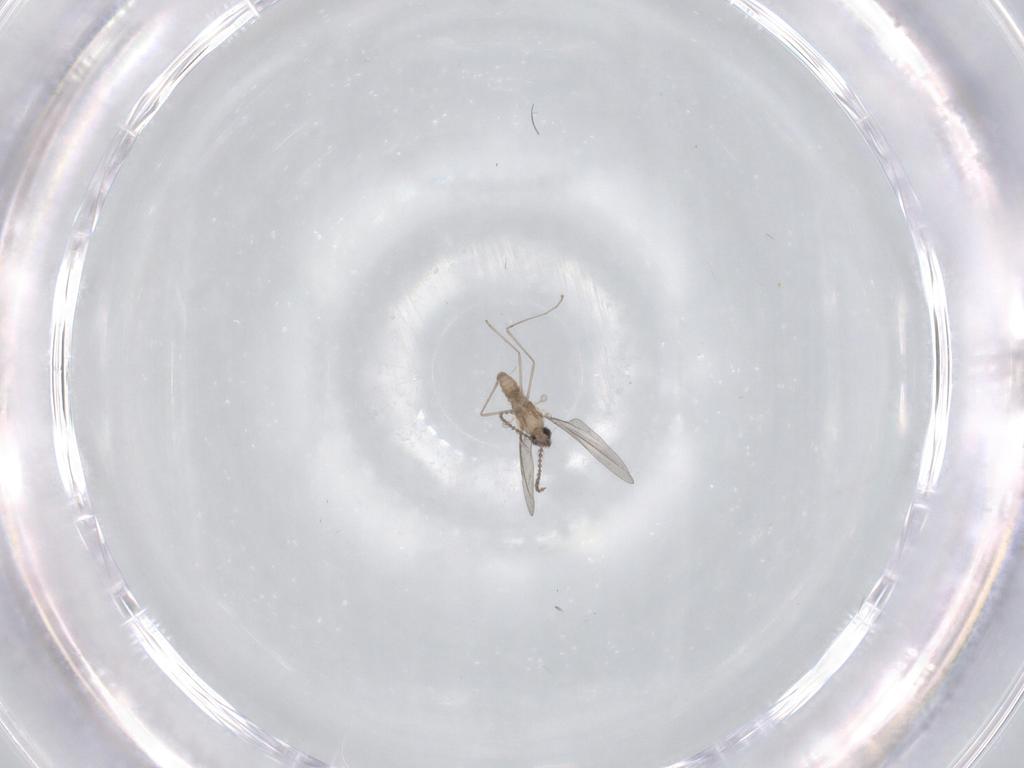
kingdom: Animalia
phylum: Arthropoda
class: Insecta
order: Diptera
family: Cecidomyiidae
